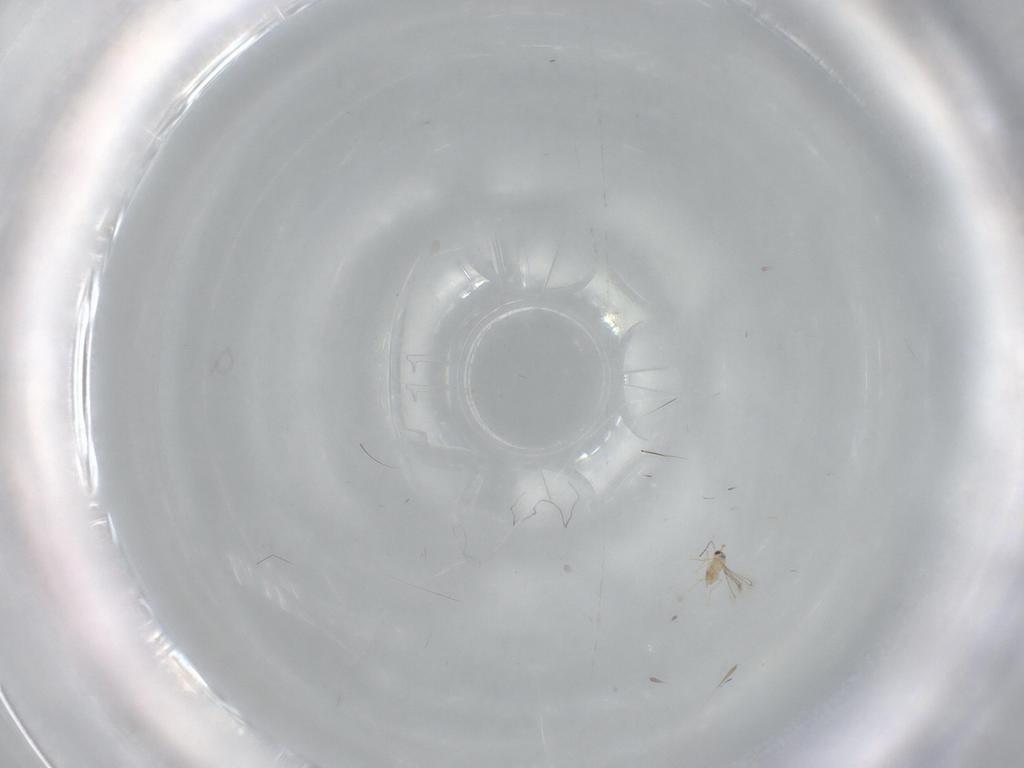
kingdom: Animalia
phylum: Arthropoda
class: Insecta
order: Hymenoptera
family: Mymaridae
